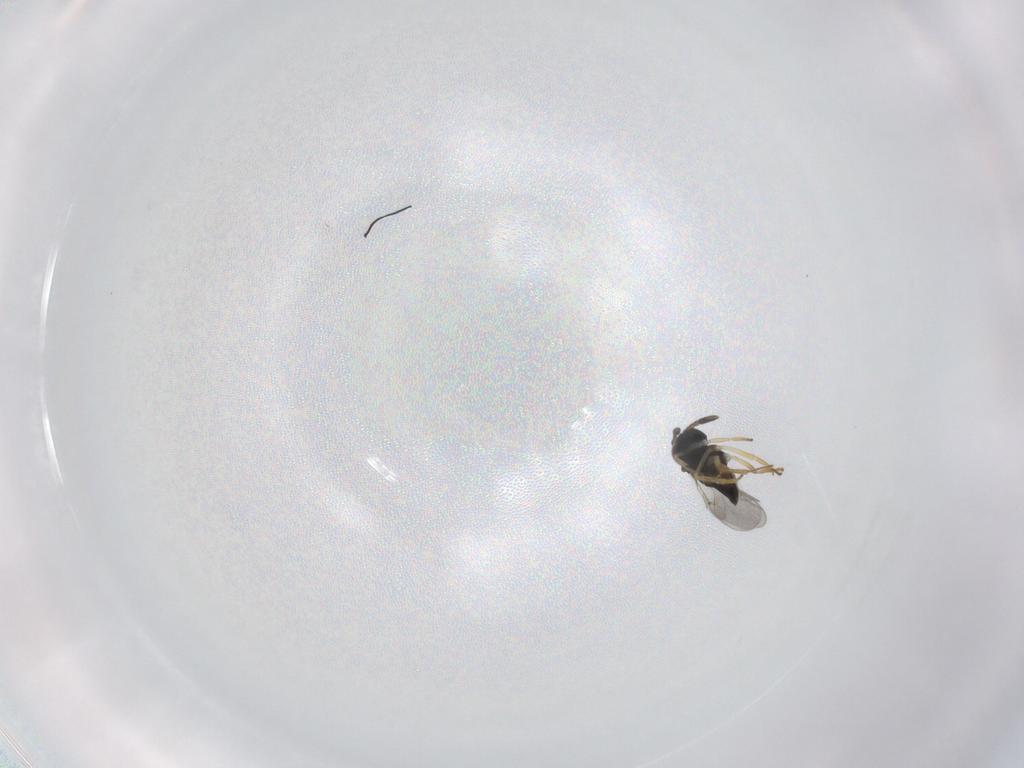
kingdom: Animalia
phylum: Arthropoda
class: Insecta
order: Hymenoptera
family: Pompilidae
